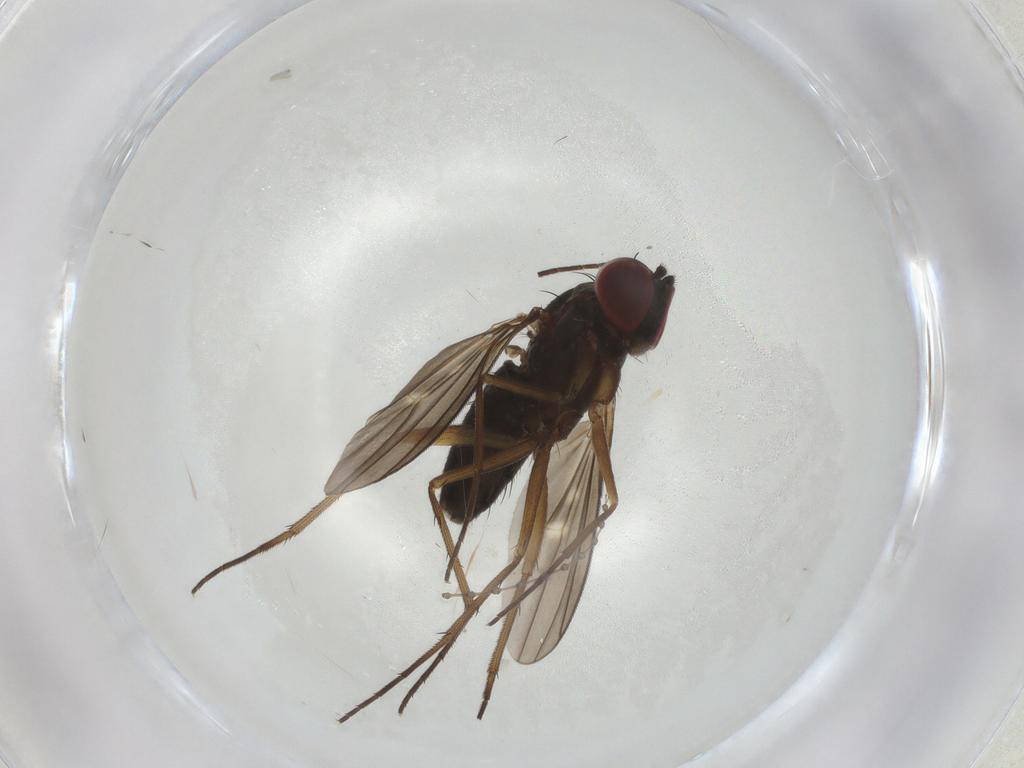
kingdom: Animalia
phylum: Arthropoda
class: Insecta
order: Diptera
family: Dolichopodidae
